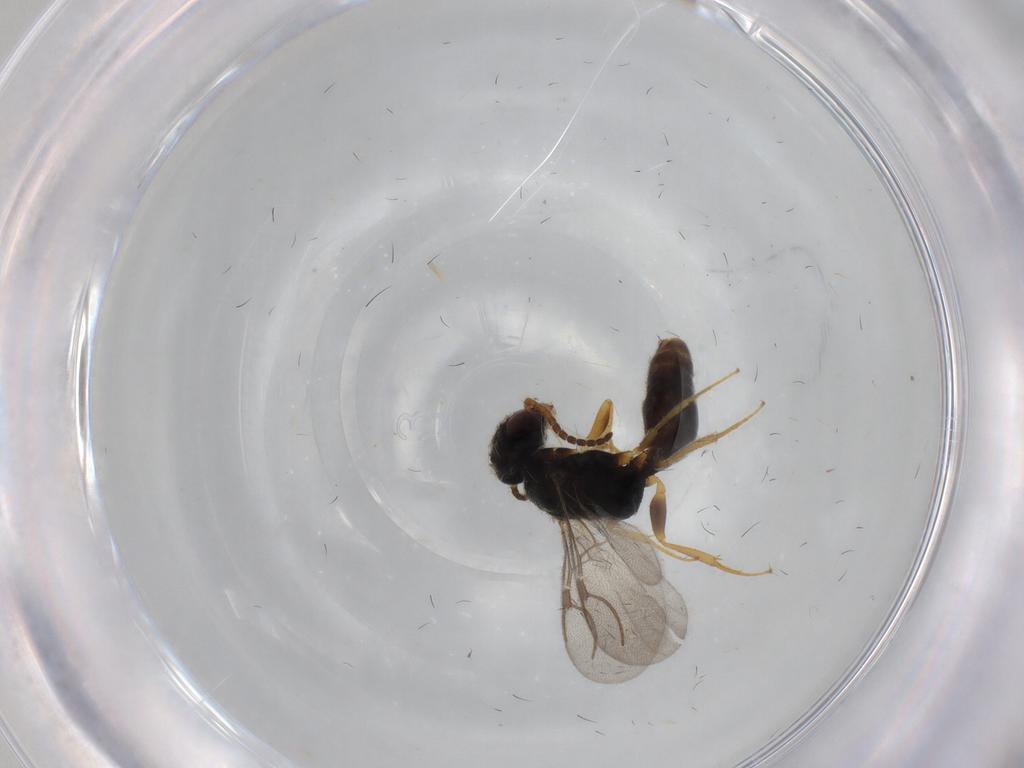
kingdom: Animalia
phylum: Arthropoda
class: Insecta
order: Hymenoptera
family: Bethylidae
